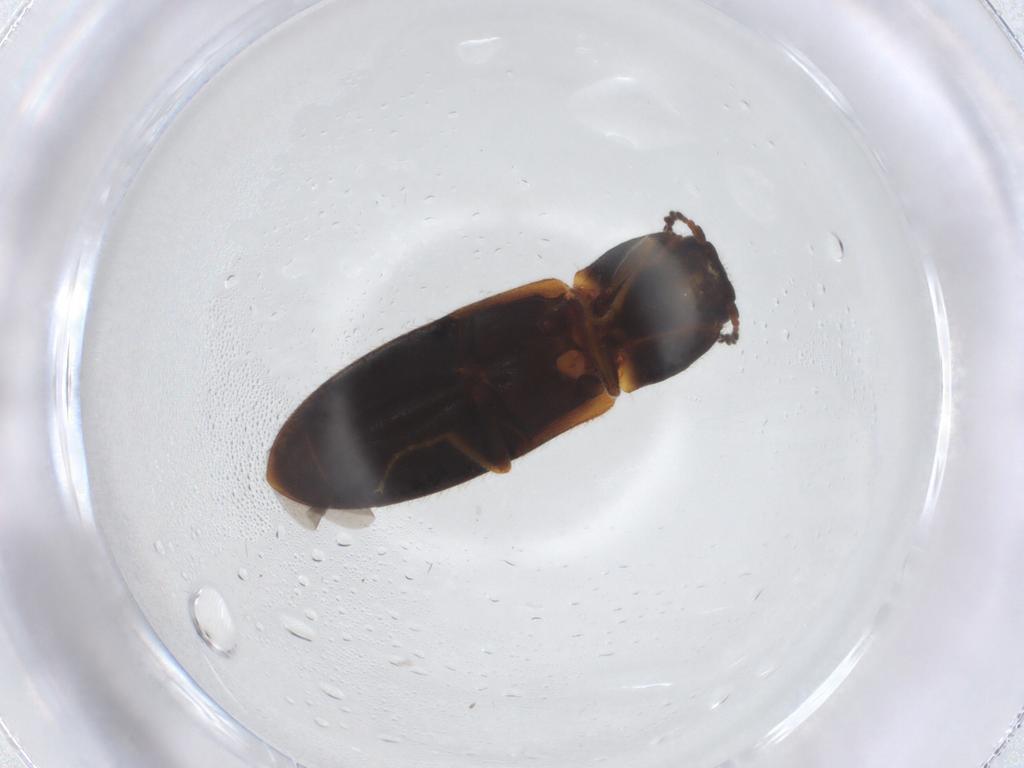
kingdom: Animalia
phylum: Arthropoda
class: Insecta
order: Coleoptera
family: Elateridae
